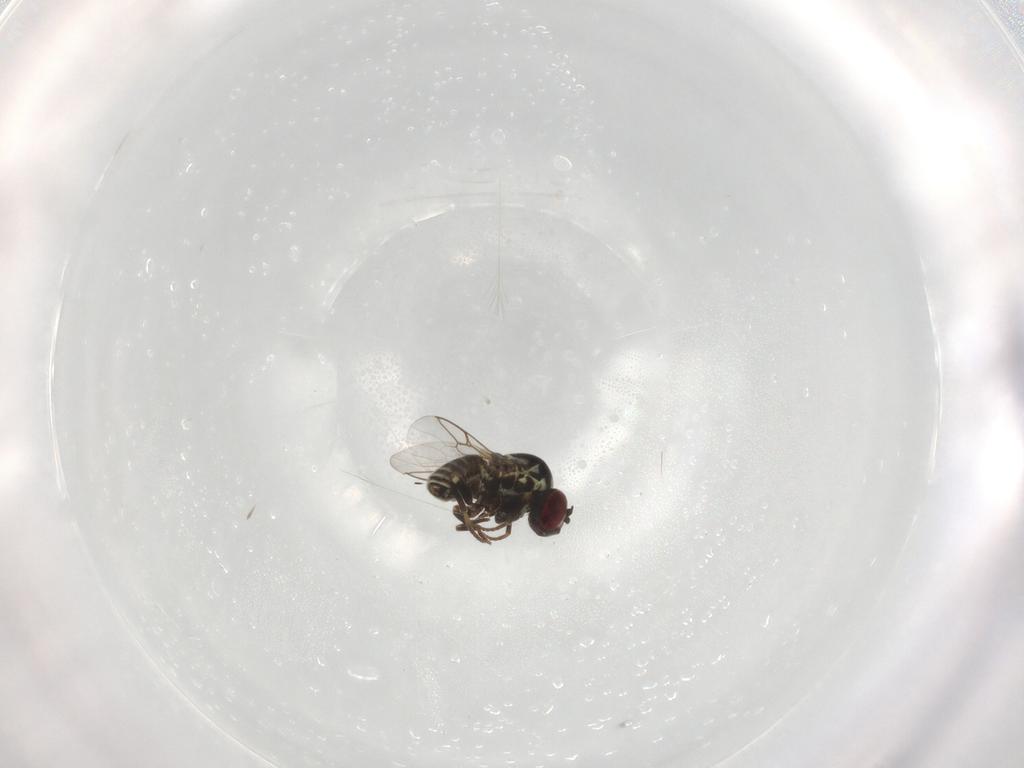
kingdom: Animalia
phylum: Arthropoda
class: Insecta
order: Diptera
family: Bombyliidae
